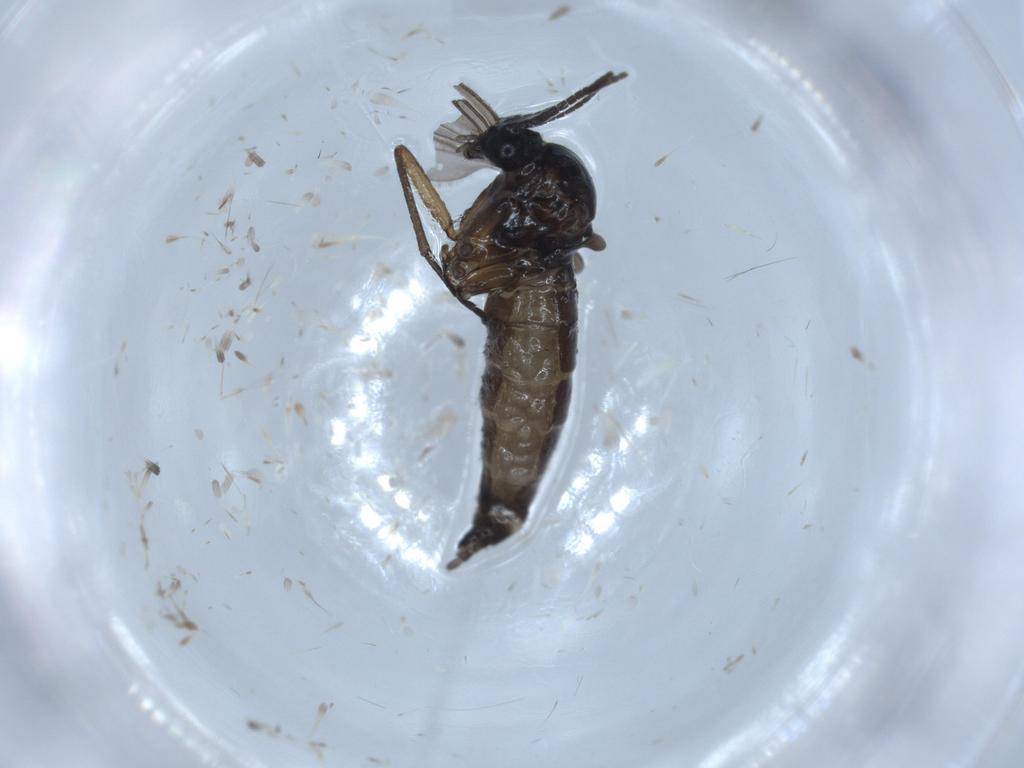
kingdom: Animalia
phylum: Arthropoda
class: Insecta
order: Diptera
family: Sciaridae
